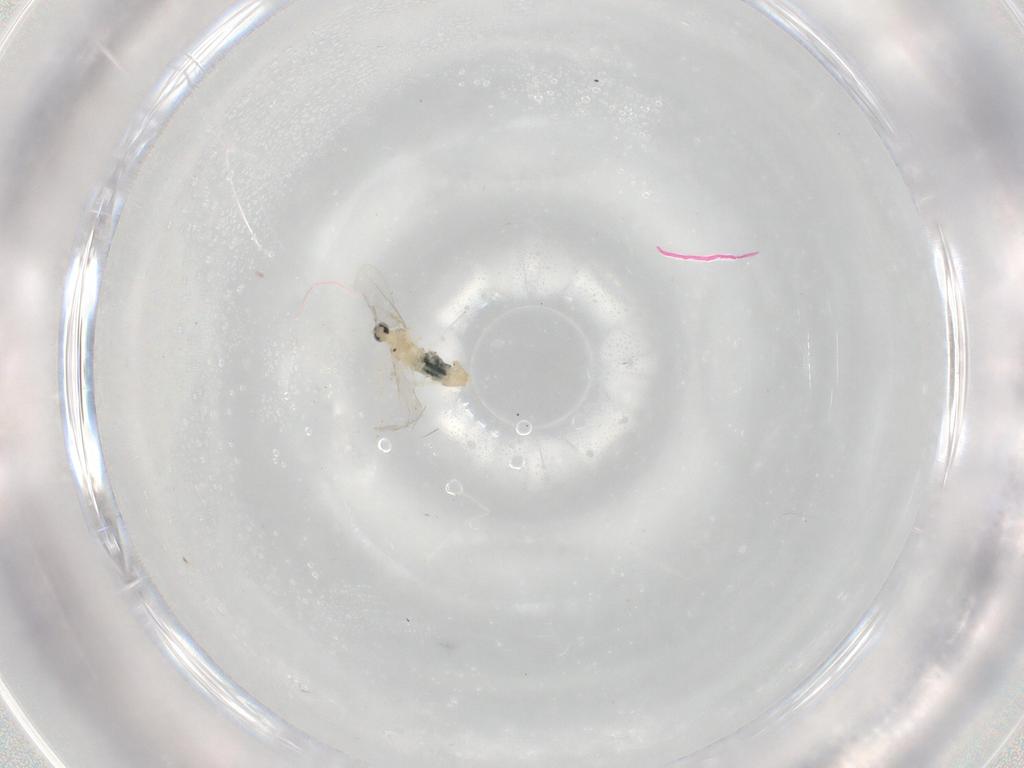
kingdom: Animalia
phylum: Arthropoda
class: Insecta
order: Diptera
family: Cecidomyiidae
